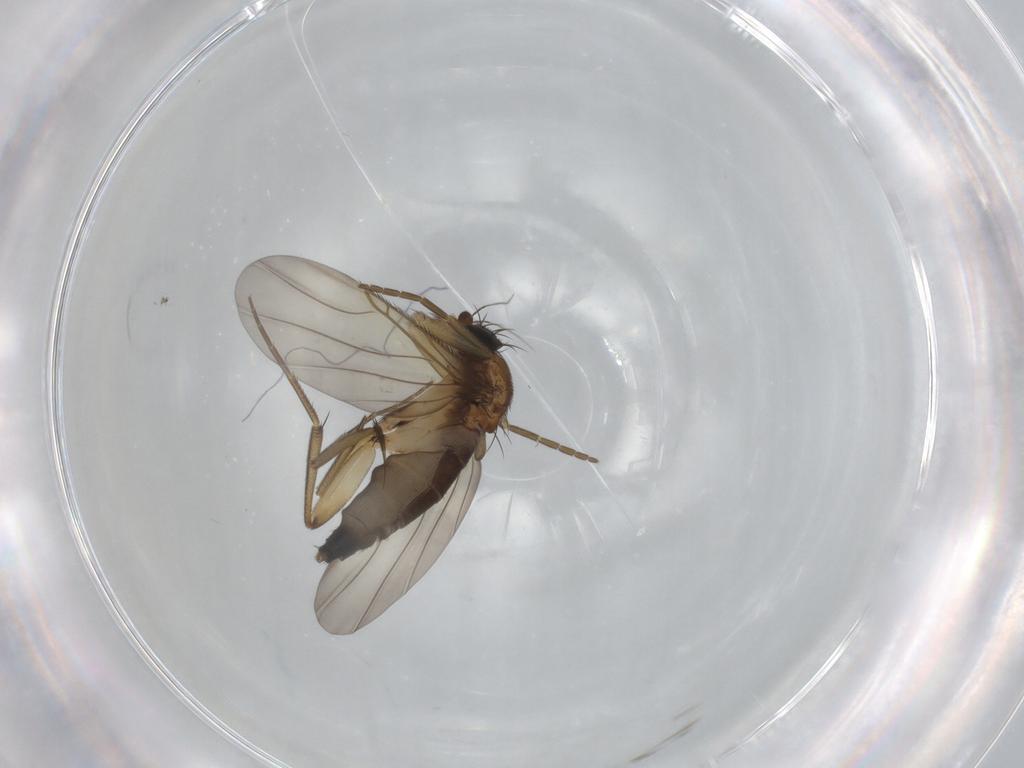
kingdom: Animalia
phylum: Arthropoda
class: Insecta
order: Diptera
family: Phoridae
